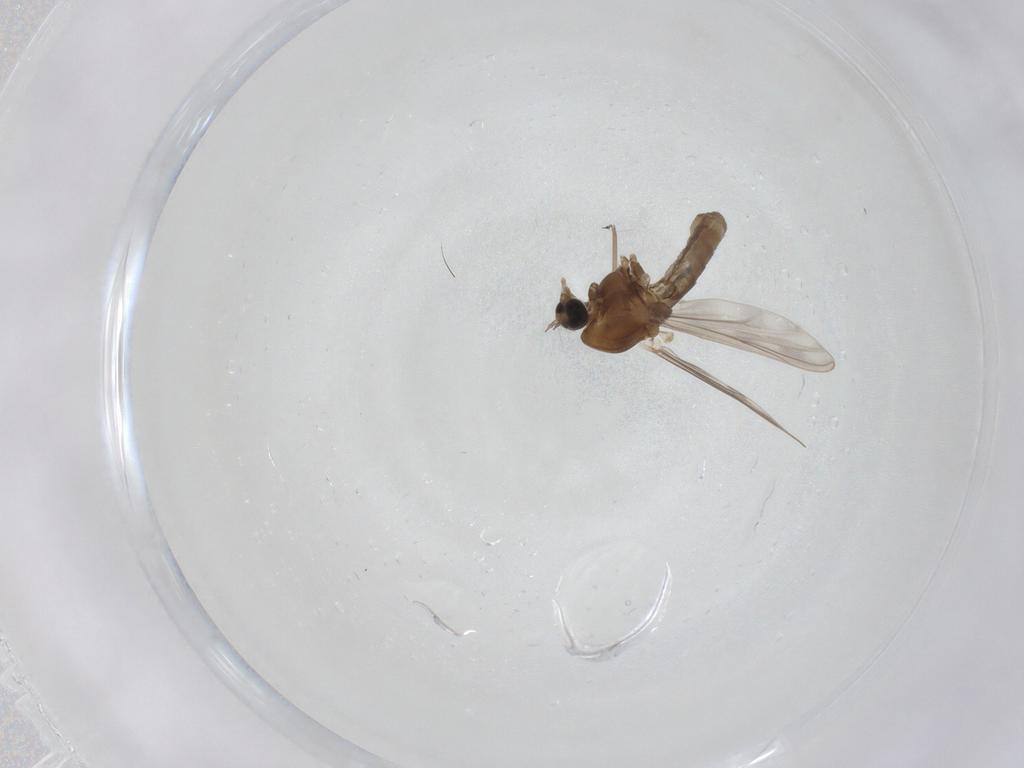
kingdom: Animalia
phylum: Arthropoda
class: Insecta
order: Diptera
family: Chironomidae
